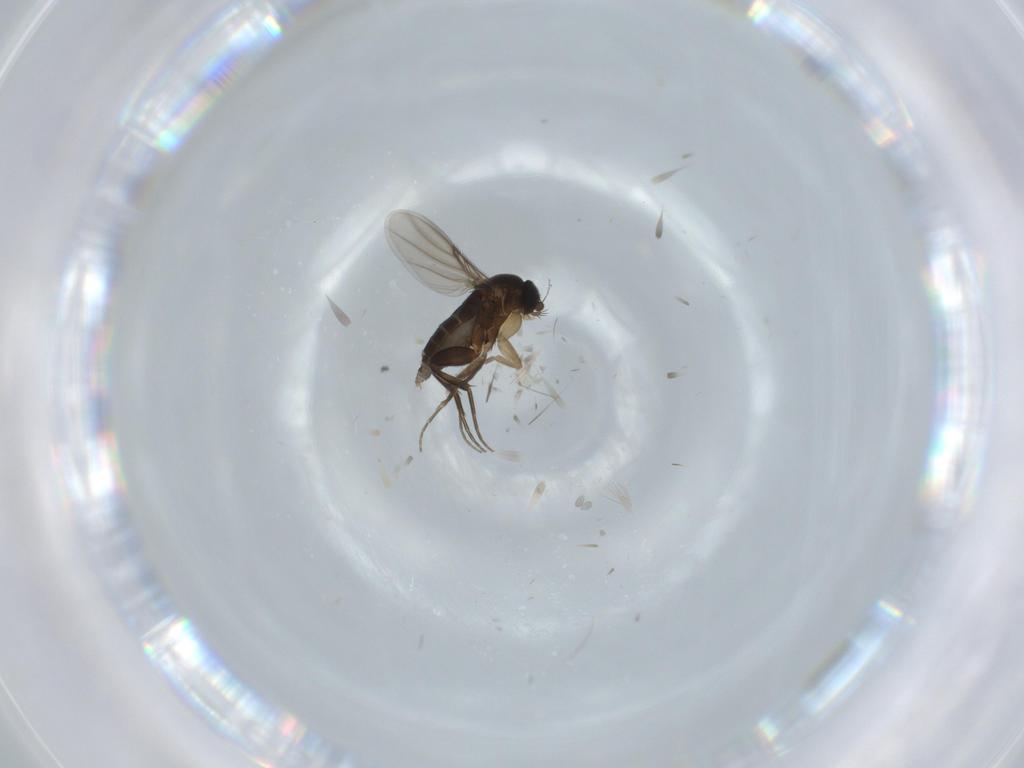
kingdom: Animalia
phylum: Arthropoda
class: Insecta
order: Diptera
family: Phoridae
